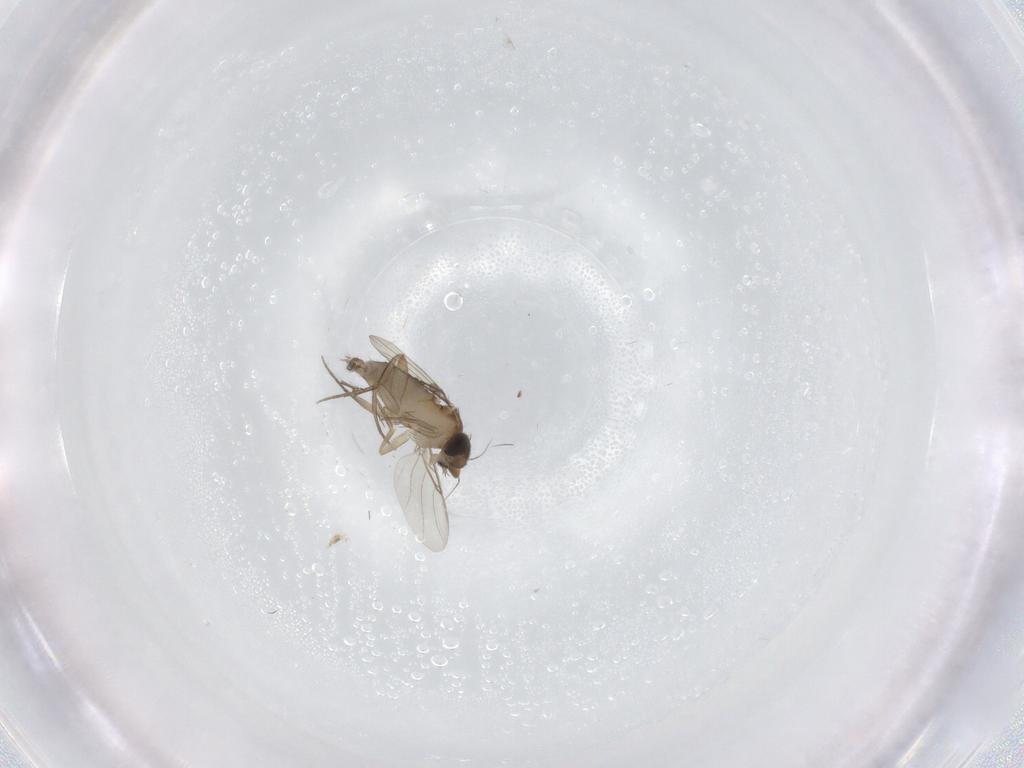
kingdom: Animalia
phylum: Arthropoda
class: Insecta
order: Diptera
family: Phoridae
